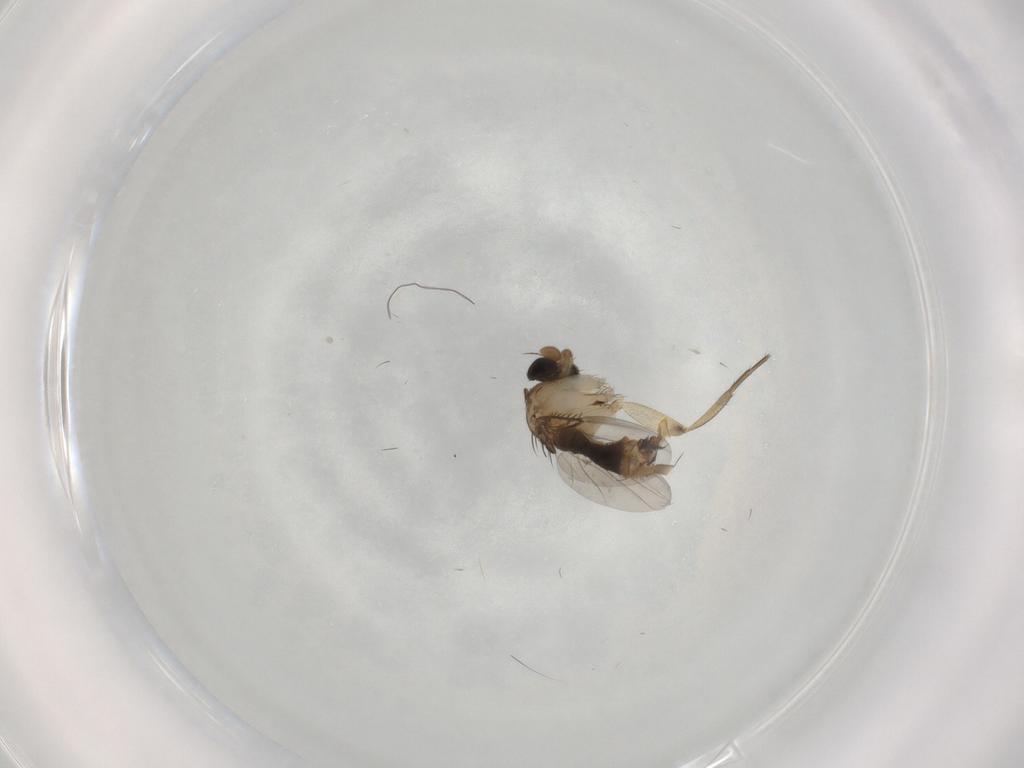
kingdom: Animalia
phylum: Arthropoda
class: Insecta
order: Diptera
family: Phoridae
